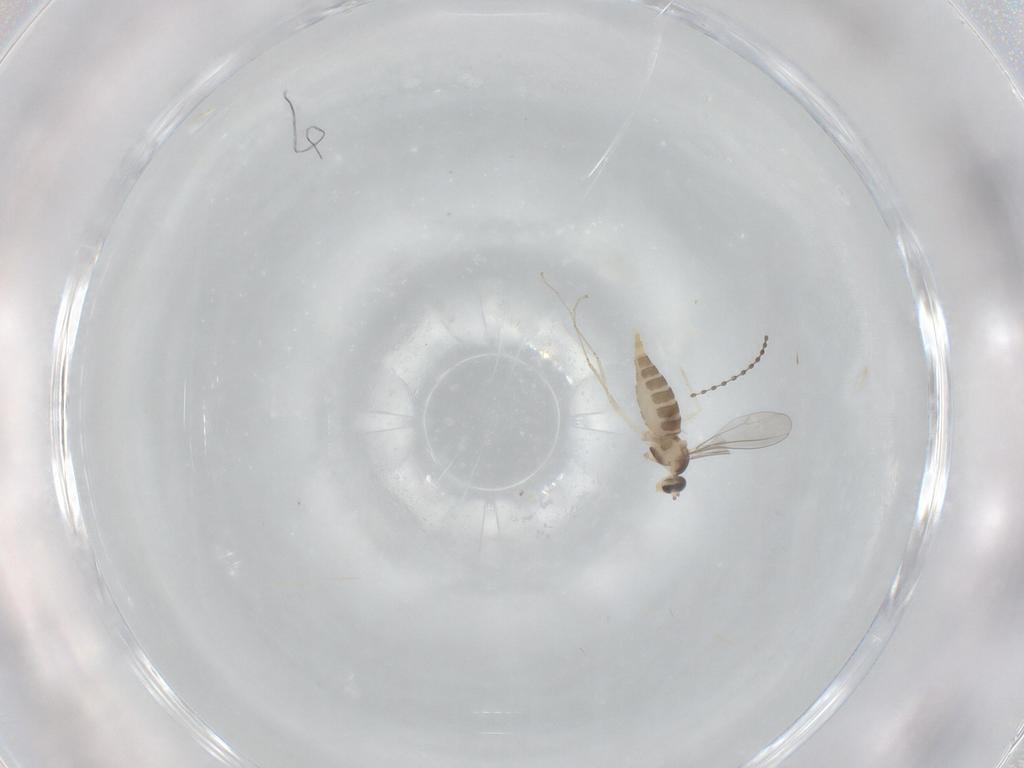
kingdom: Animalia
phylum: Arthropoda
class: Insecta
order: Diptera
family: Cecidomyiidae
